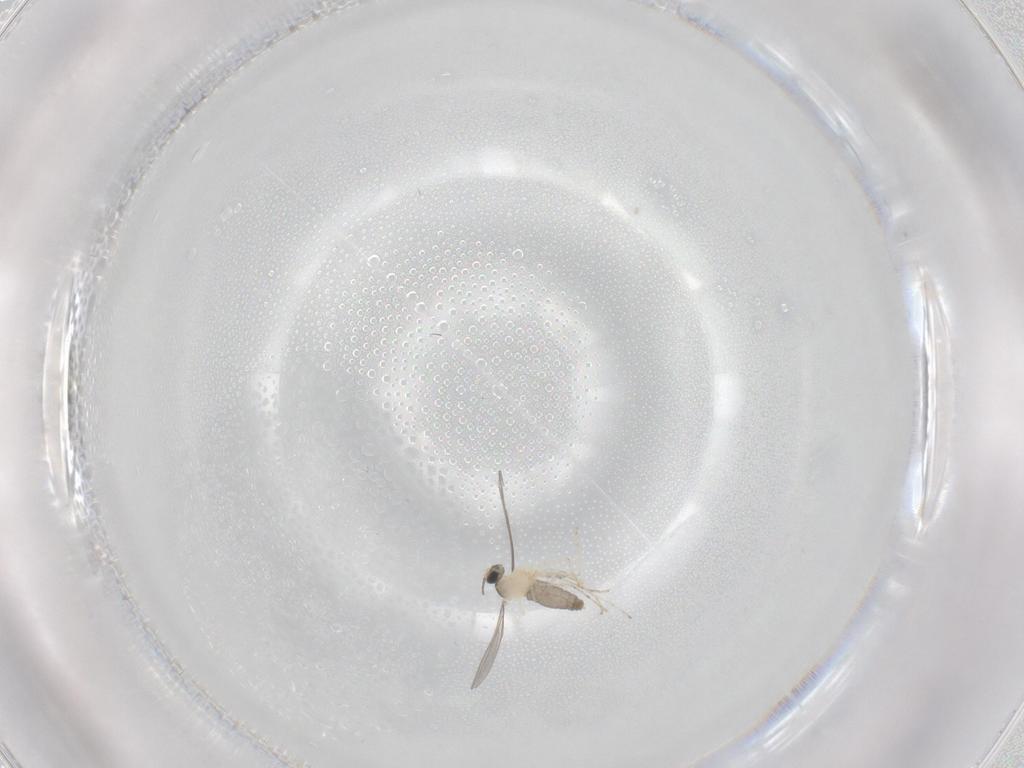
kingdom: Animalia
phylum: Arthropoda
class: Insecta
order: Diptera
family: Cecidomyiidae
